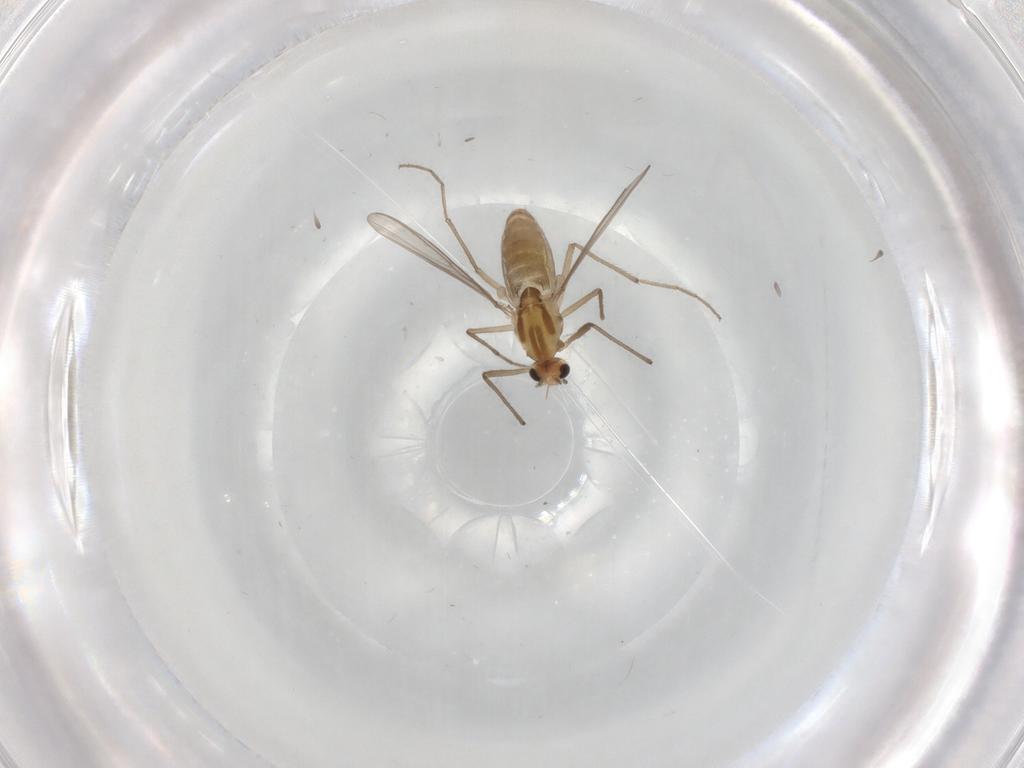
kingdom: Animalia
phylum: Arthropoda
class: Insecta
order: Diptera
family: Chironomidae
